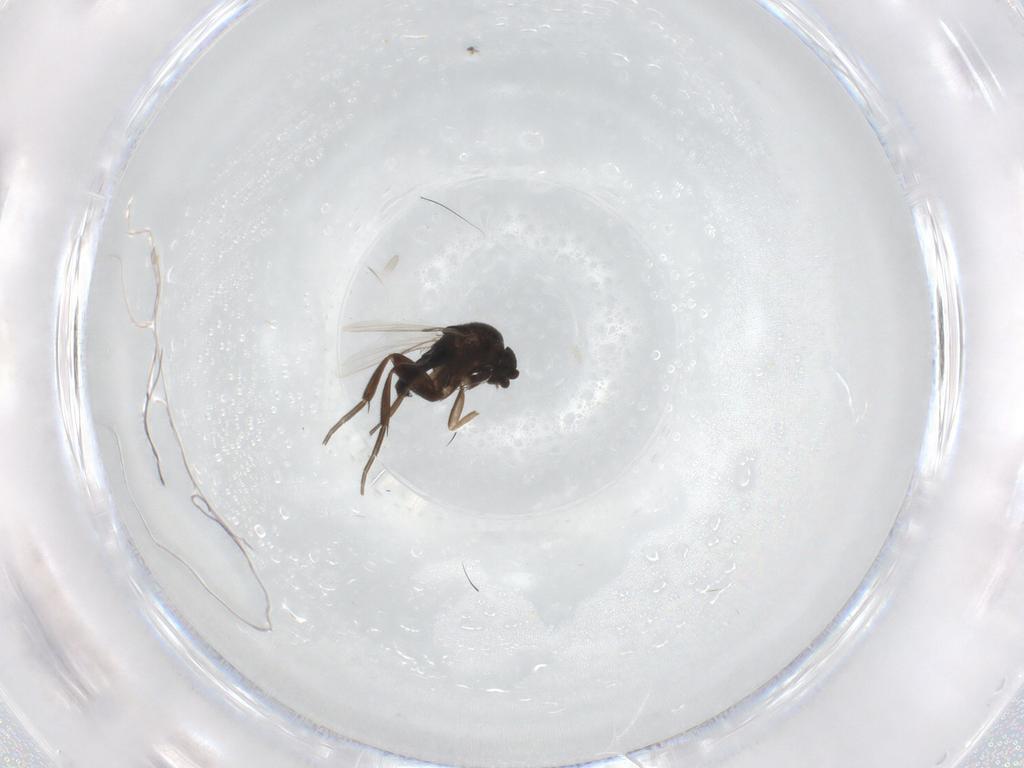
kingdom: Animalia
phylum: Arthropoda
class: Insecta
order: Diptera
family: Phoridae
